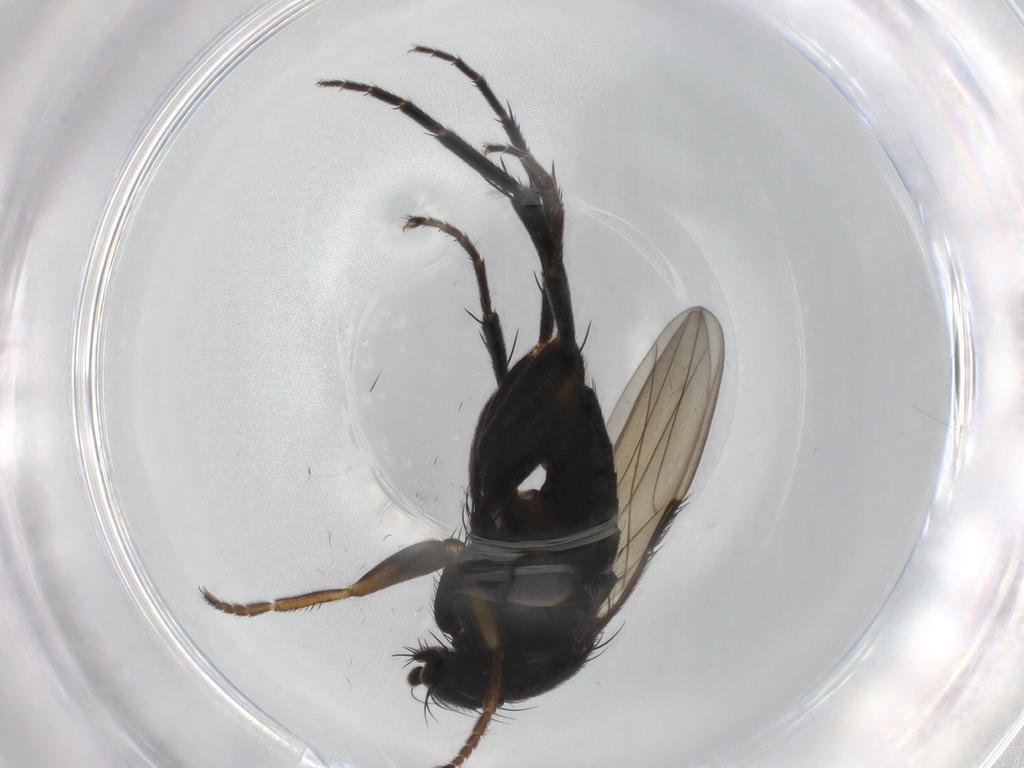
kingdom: Animalia
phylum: Arthropoda
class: Insecta
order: Diptera
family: Phoridae
